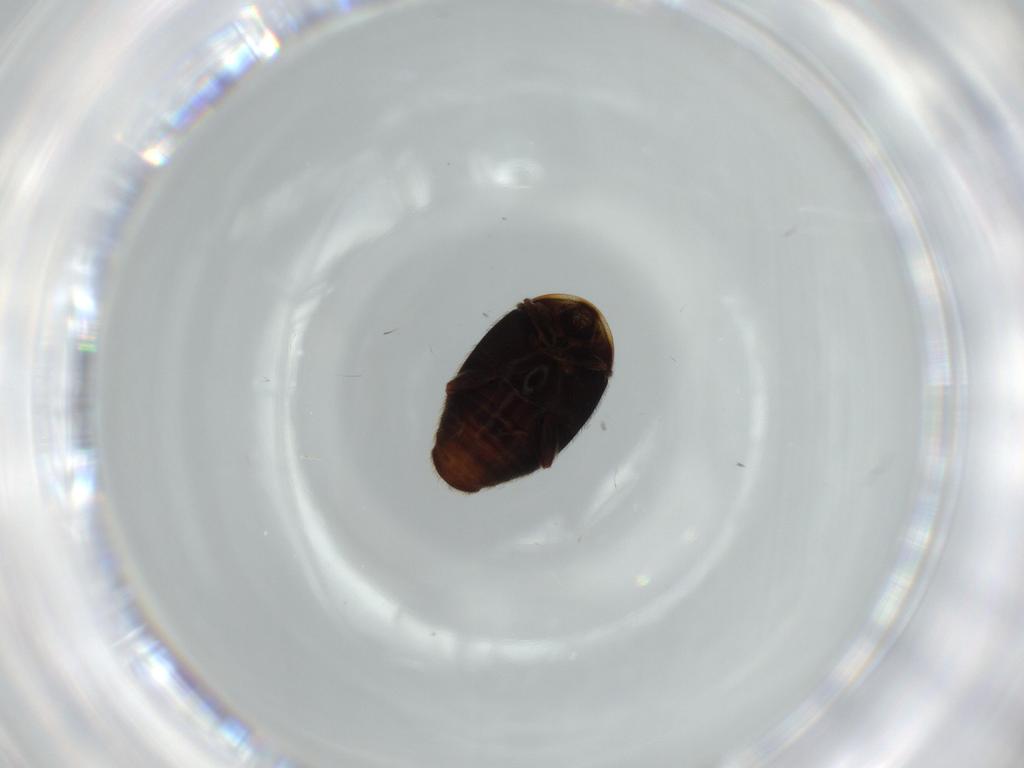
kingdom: Animalia
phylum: Arthropoda
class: Insecta
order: Coleoptera
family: Corylophidae
